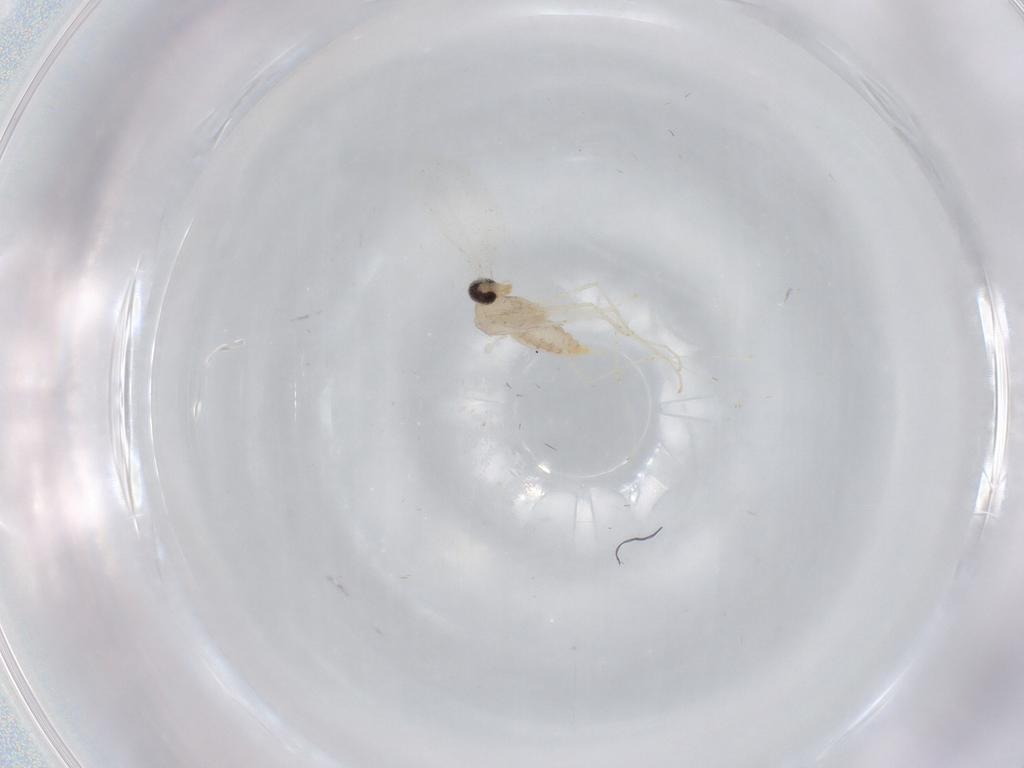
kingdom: Animalia
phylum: Arthropoda
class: Insecta
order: Diptera
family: Cecidomyiidae
